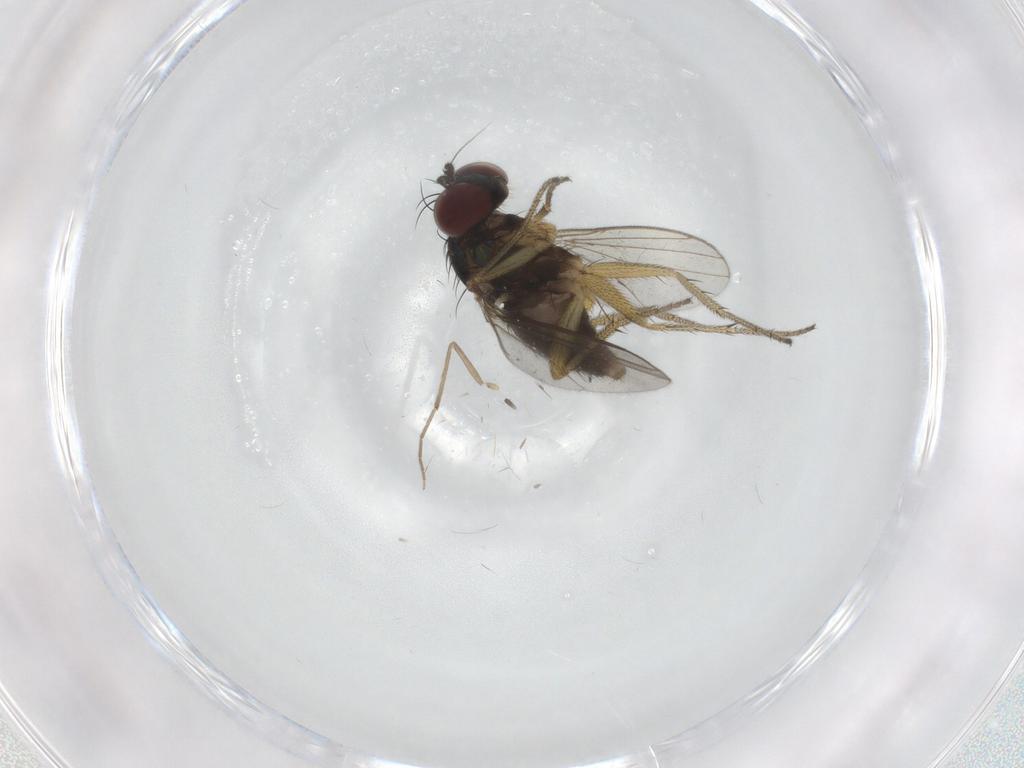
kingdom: Animalia
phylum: Arthropoda
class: Insecta
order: Diptera
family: Dolichopodidae
